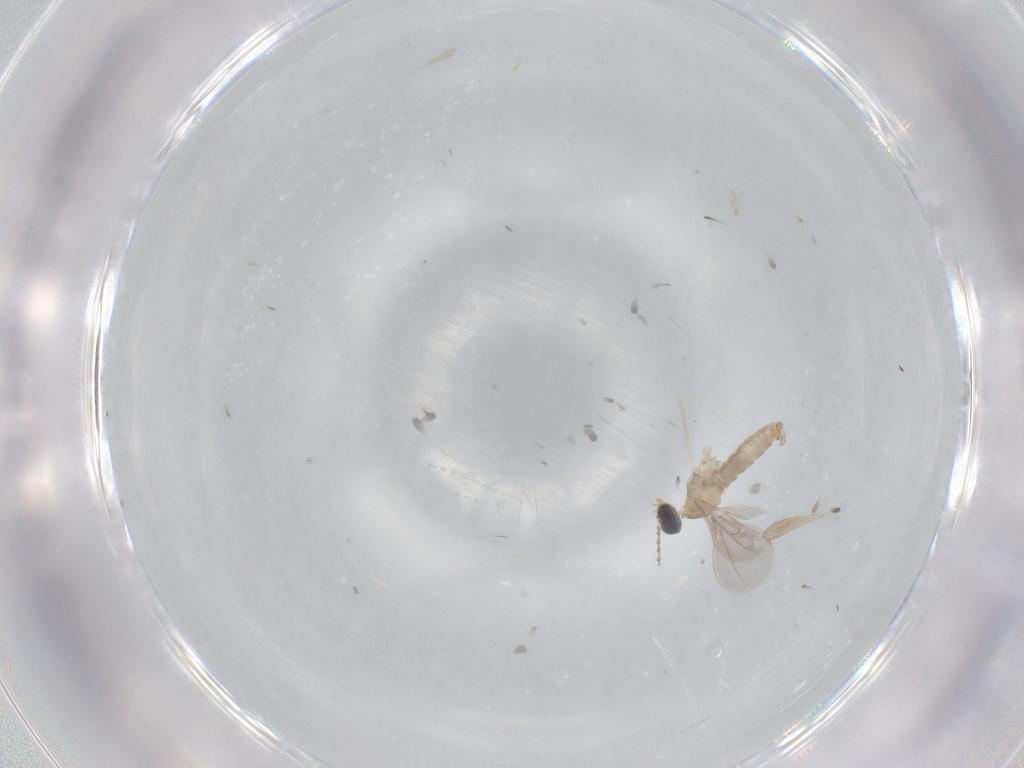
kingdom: Animalia
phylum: Arthropoda
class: Insecta
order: Diptera
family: Cecidomyiidae
